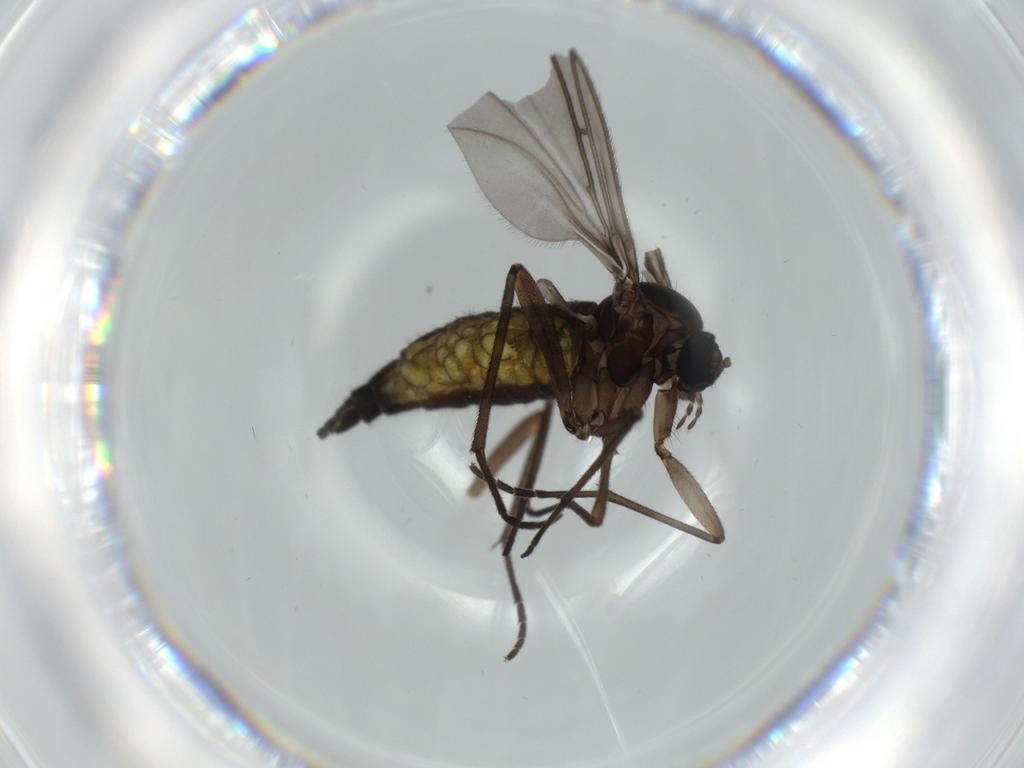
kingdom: Animalia
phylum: Arthropoda
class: Insecta
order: Diptera
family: Sciaridae
